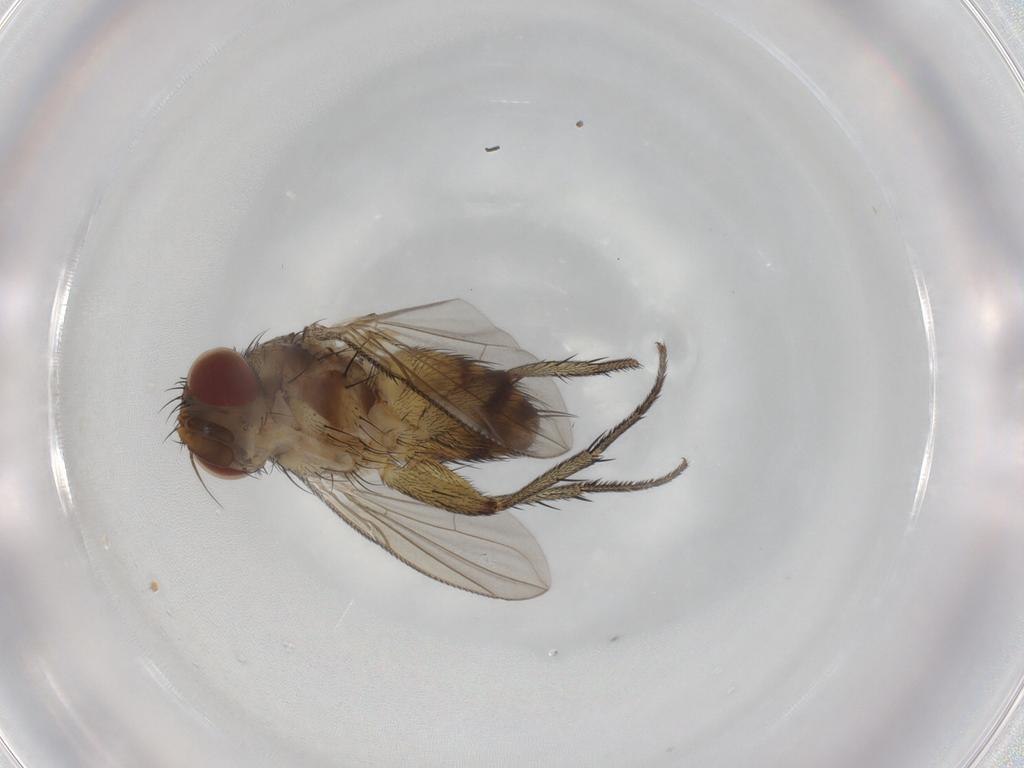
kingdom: Animalia
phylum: Arthropoda
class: Insecta
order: Diptera
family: Tachinidae
